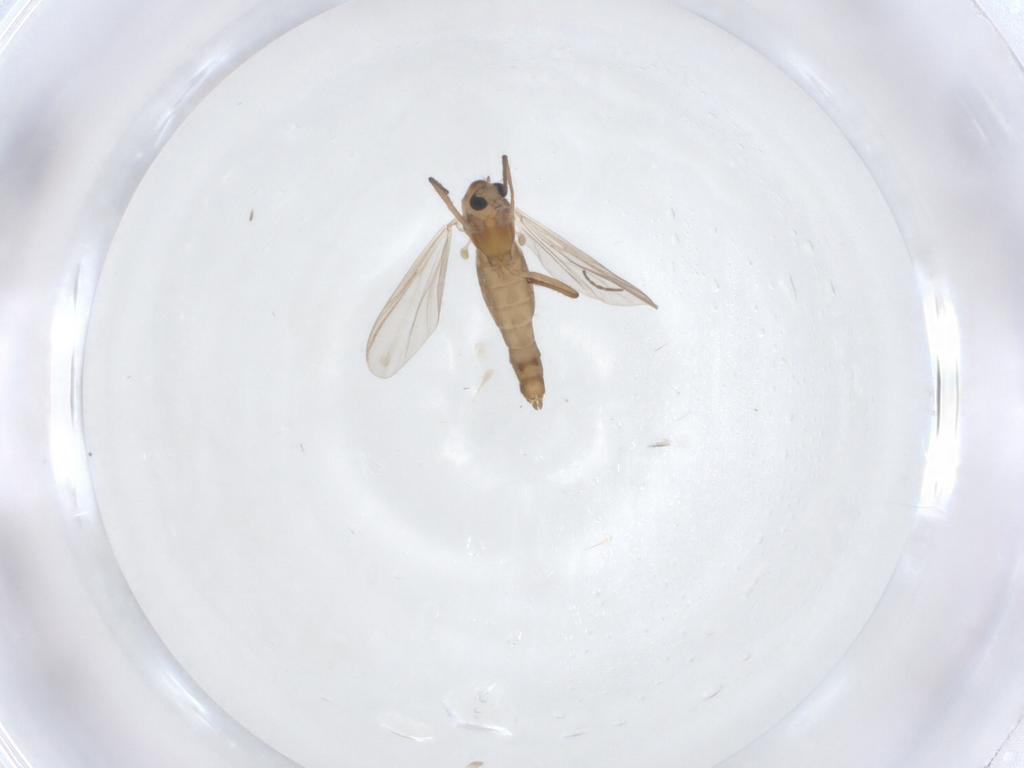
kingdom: Animalia
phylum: Arthropoda
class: Insecta
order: Diptera
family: Chironomidae
